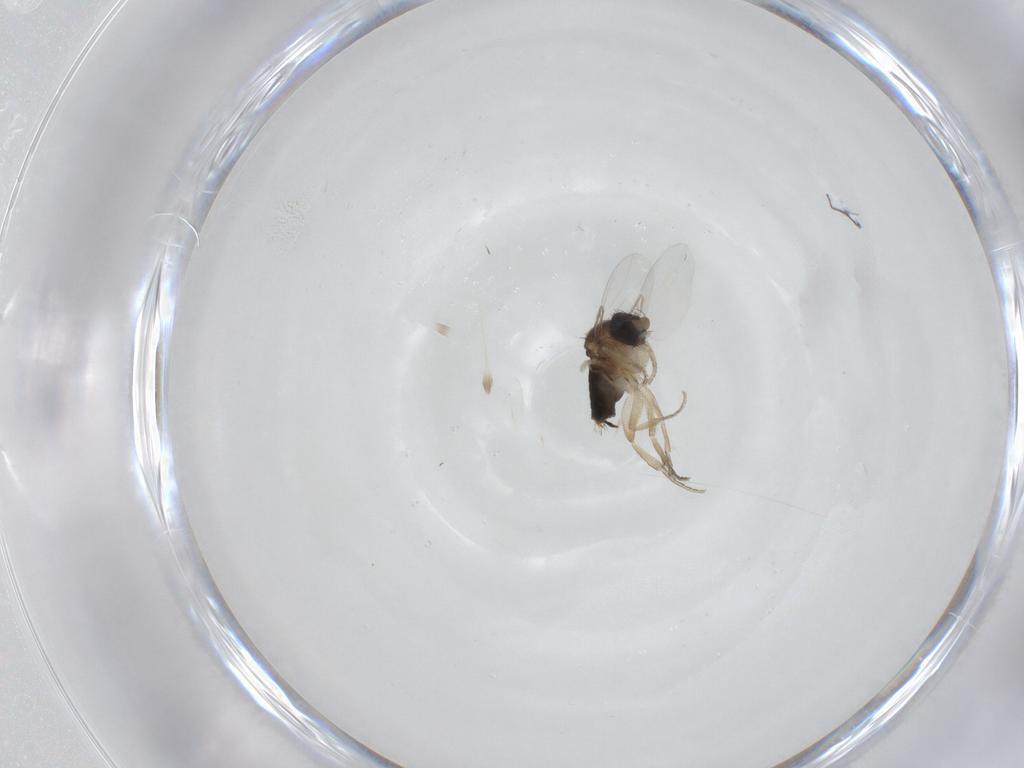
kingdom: Animalia
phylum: Arthropoda
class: Insecta
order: Diptera
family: Phoridae
